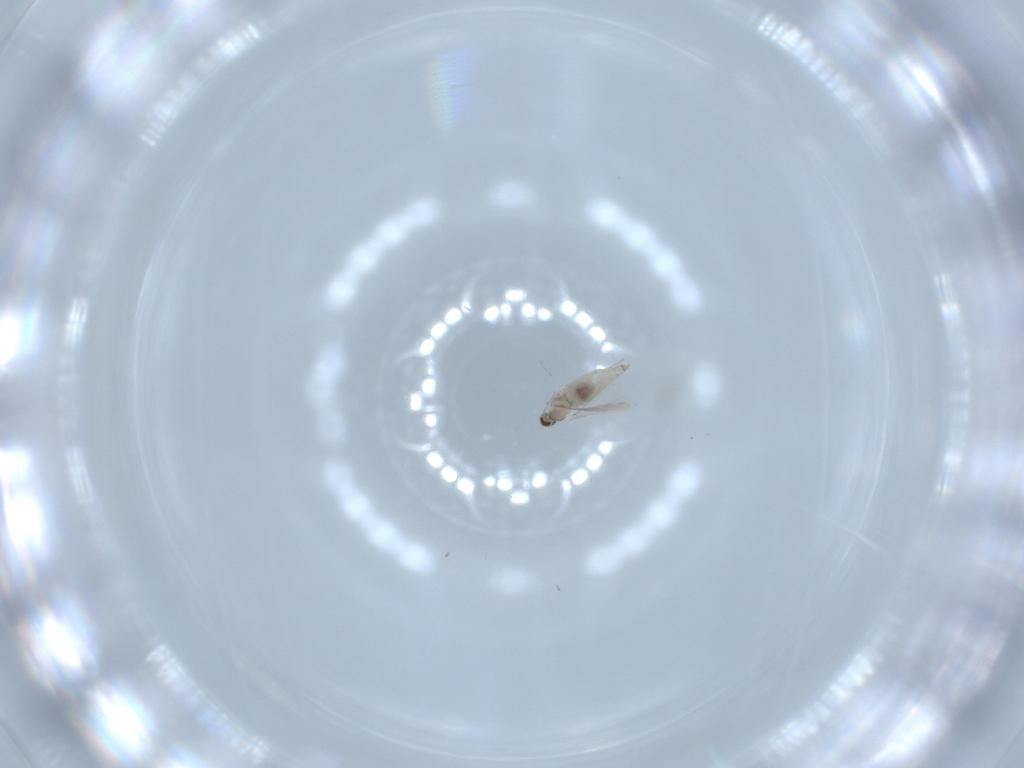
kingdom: Animalia
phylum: Arthropoda
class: Insecta
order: Diptera
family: Cecidomyiidae
